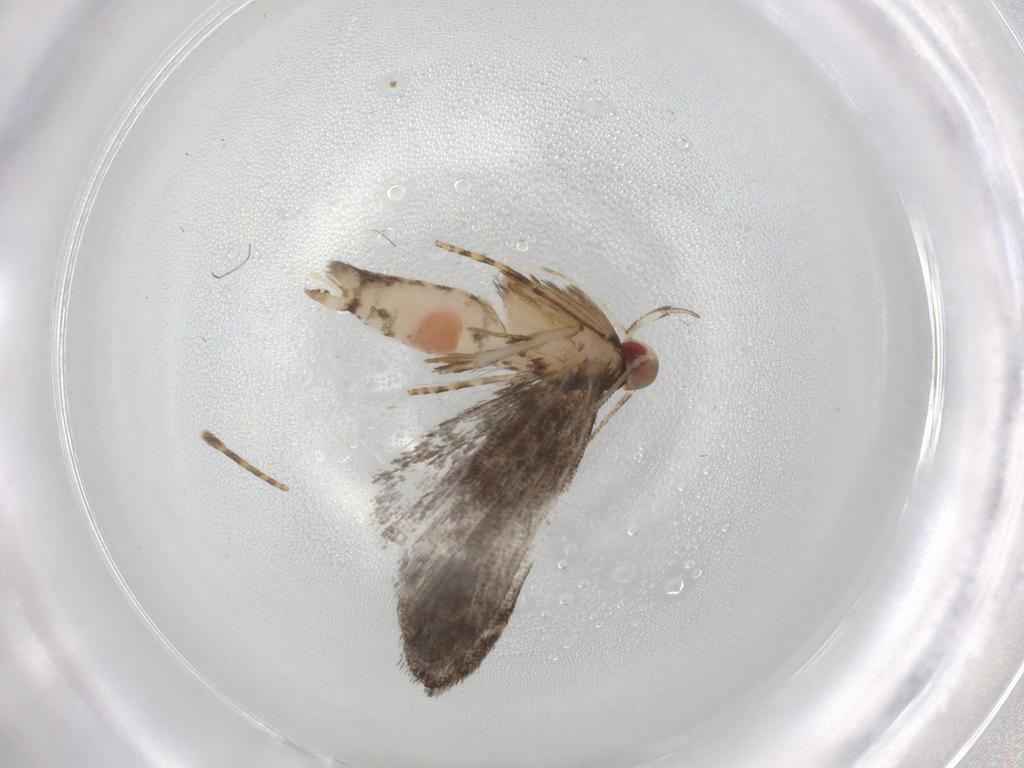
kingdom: Animalia
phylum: Arthropoda
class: Insecta
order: Lepidoptera
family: Gelechiidae
